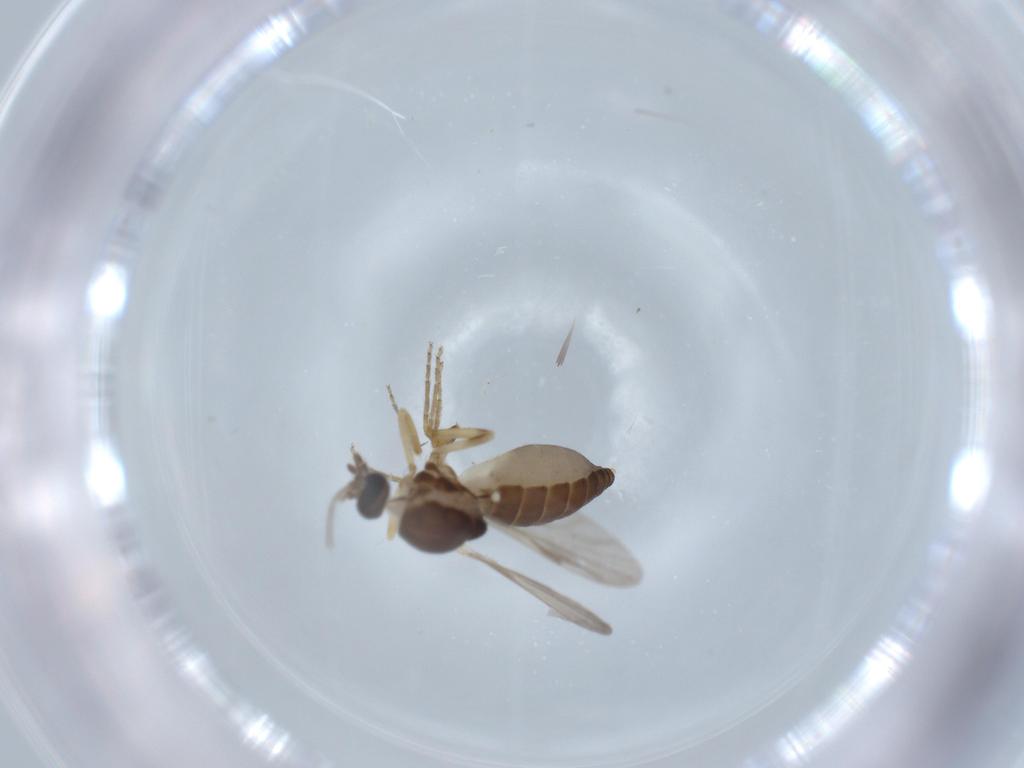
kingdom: Animalia
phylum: Arthropoda
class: Insecta
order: Diptera
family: Ceratopogonidae
